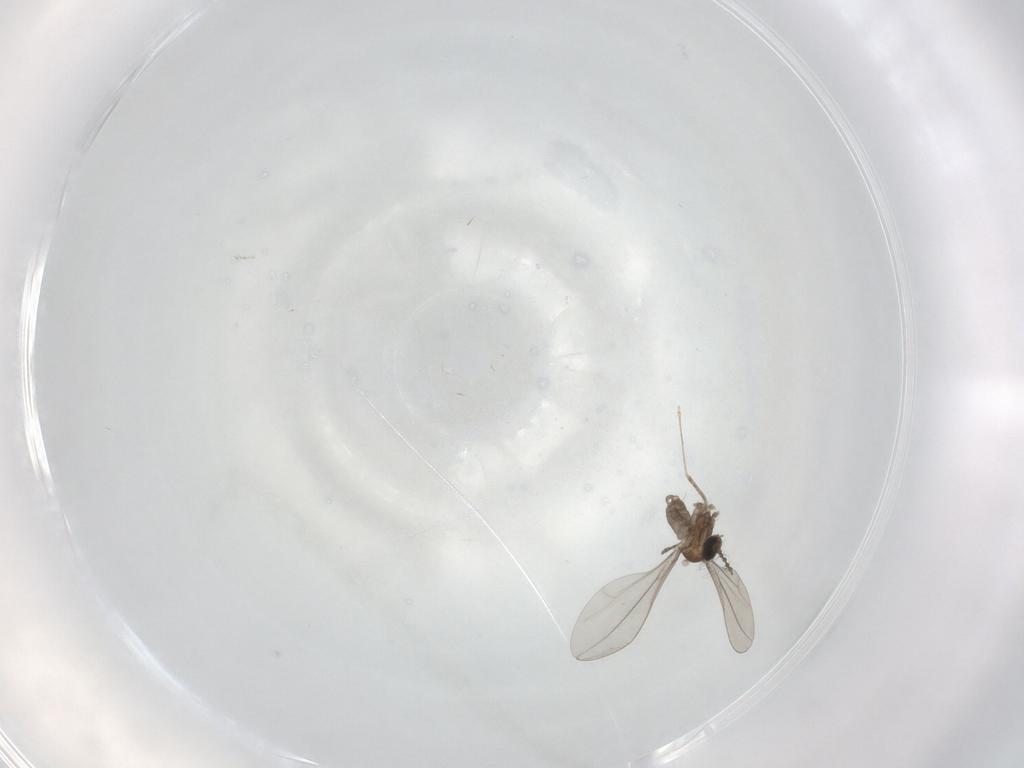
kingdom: Animalia
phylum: Arthropoda
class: Insecta
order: Diptera
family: Cecidomyiidae
